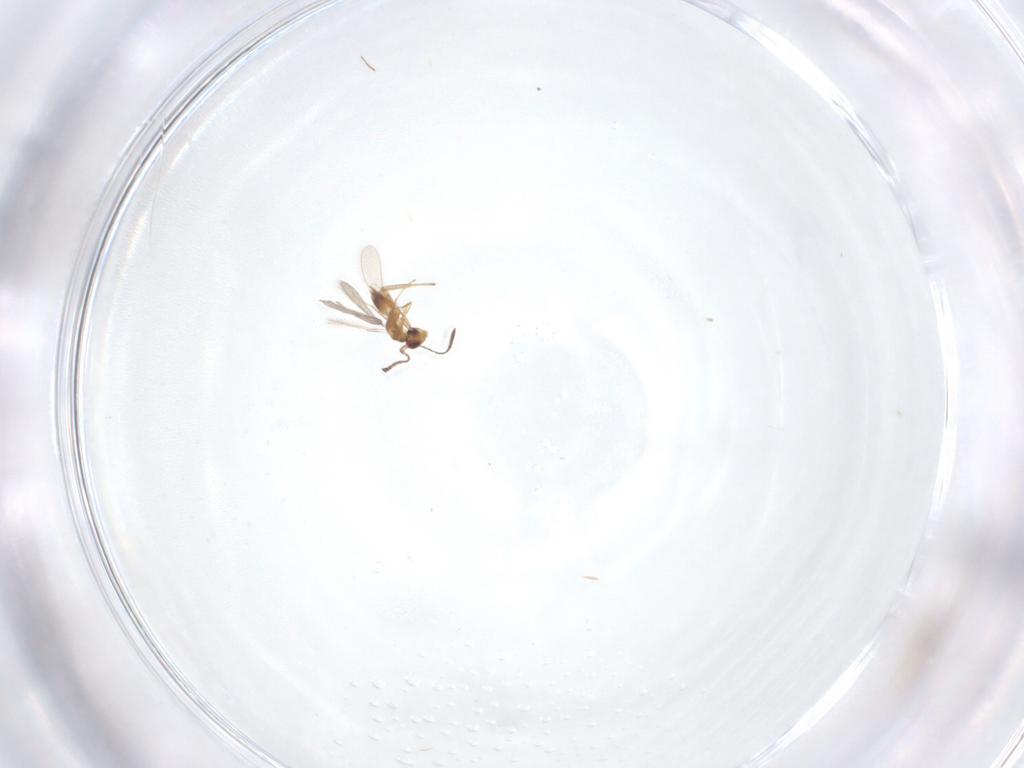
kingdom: Animalia
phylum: Arthropoda
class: Insecta
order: Hymenoptera
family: Mymaridae
